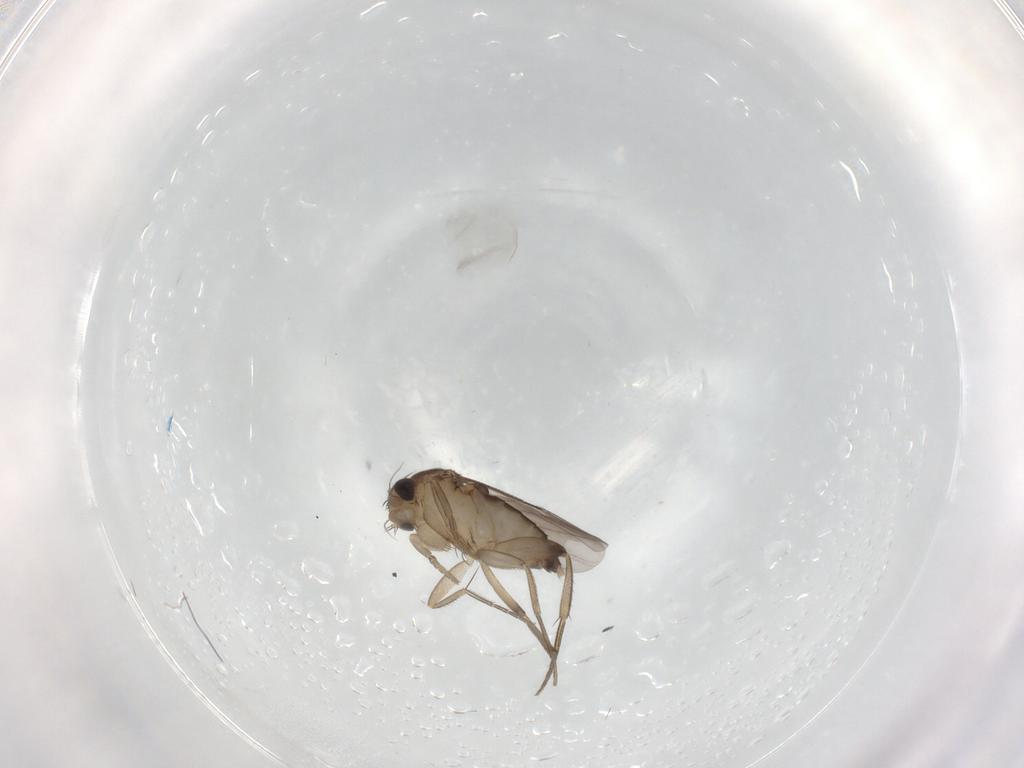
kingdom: Animalia
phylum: Arthropoda
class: Insecta
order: Diptera
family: Phoridae
